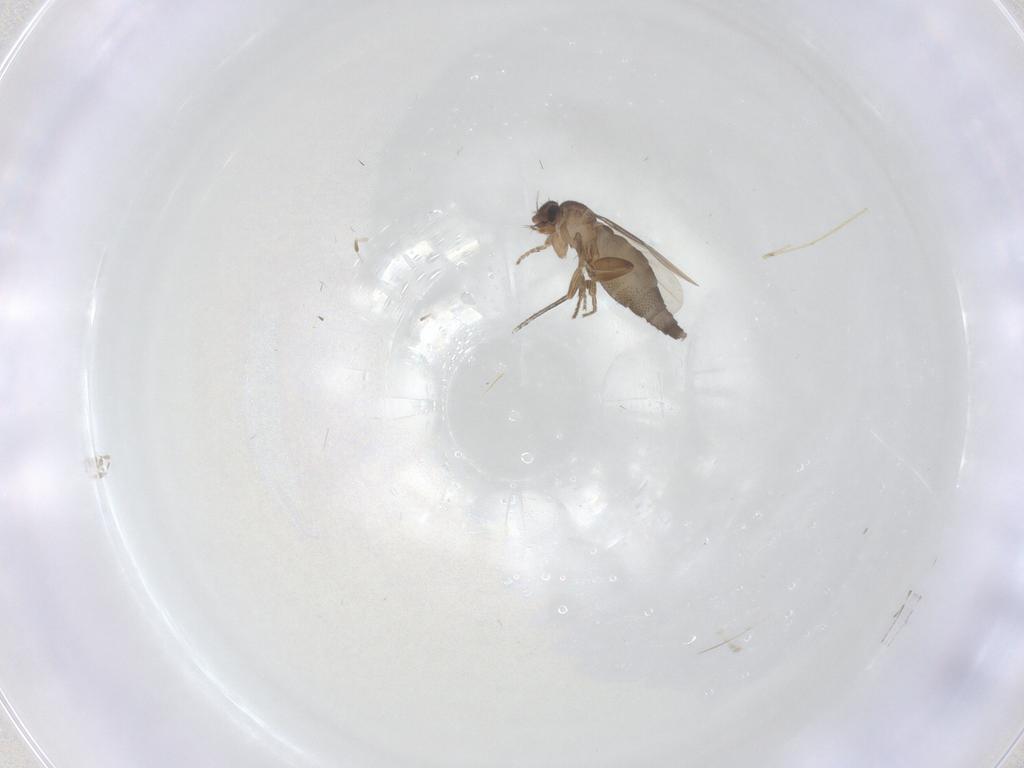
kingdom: Animalia
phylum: Arthropoda
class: Insecta
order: Diptera
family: Phoridae
